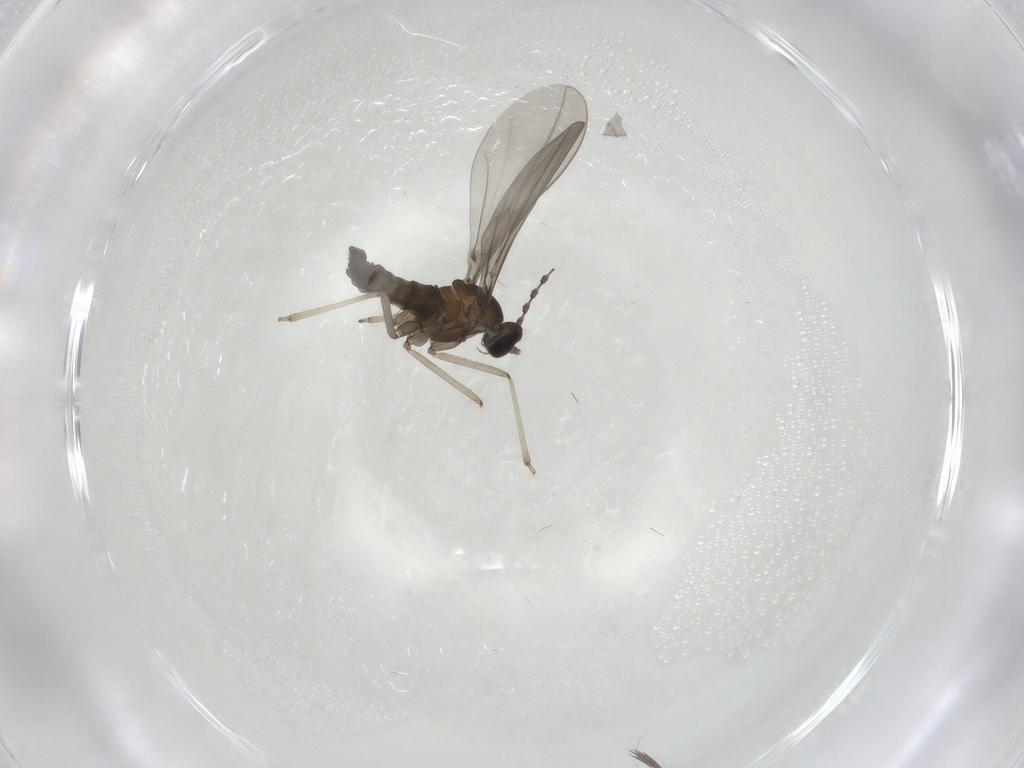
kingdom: Animalia
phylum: Arthropoda
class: Insecta
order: Diptera
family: Cecidomyiidae
